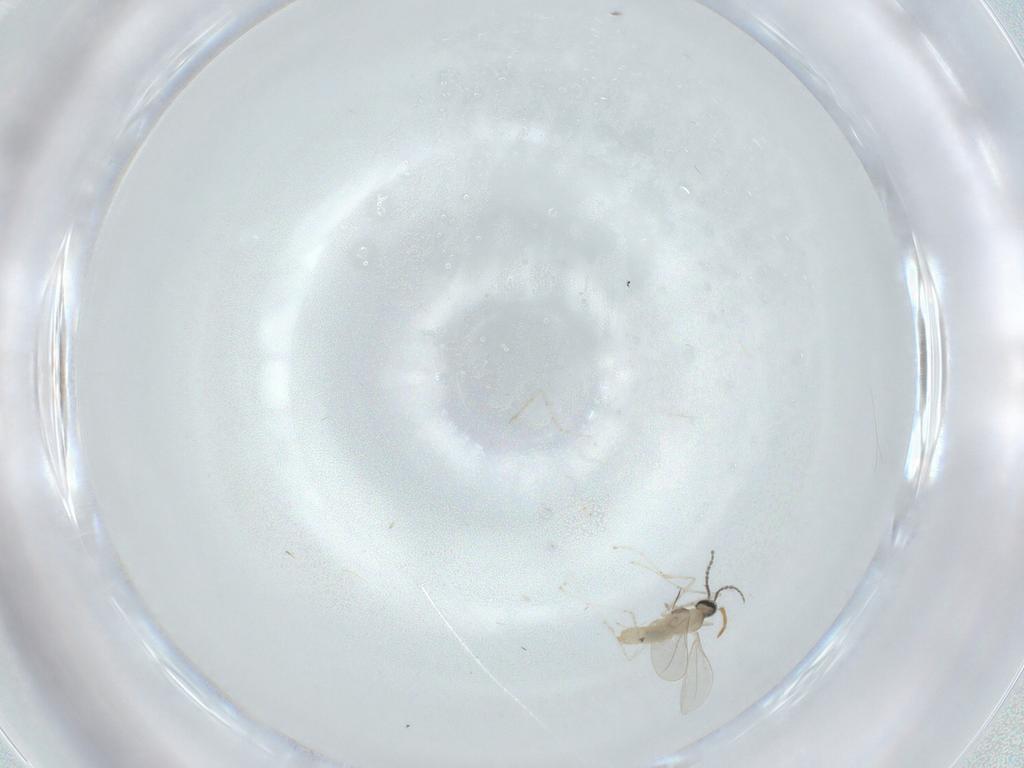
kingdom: Animalia
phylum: Arthropoda
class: Insecta
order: Diptera
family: Cecidomyiidae
